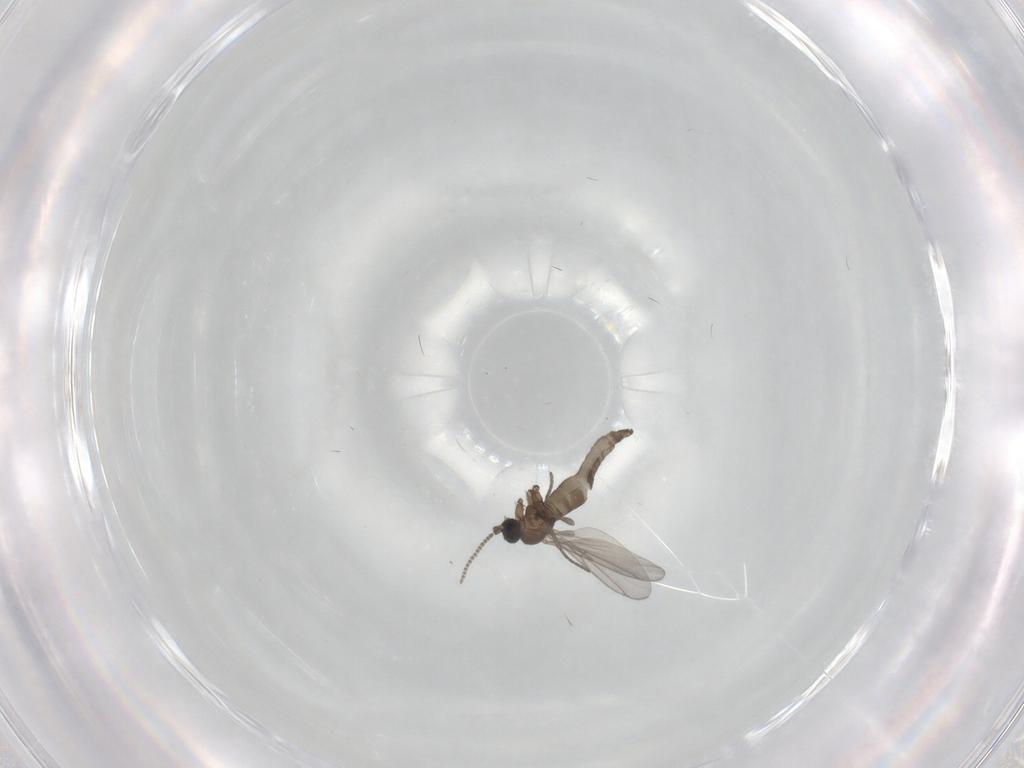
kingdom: Animalia
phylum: Arthropoda
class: Insecta
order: Diptera
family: Sciaridae
